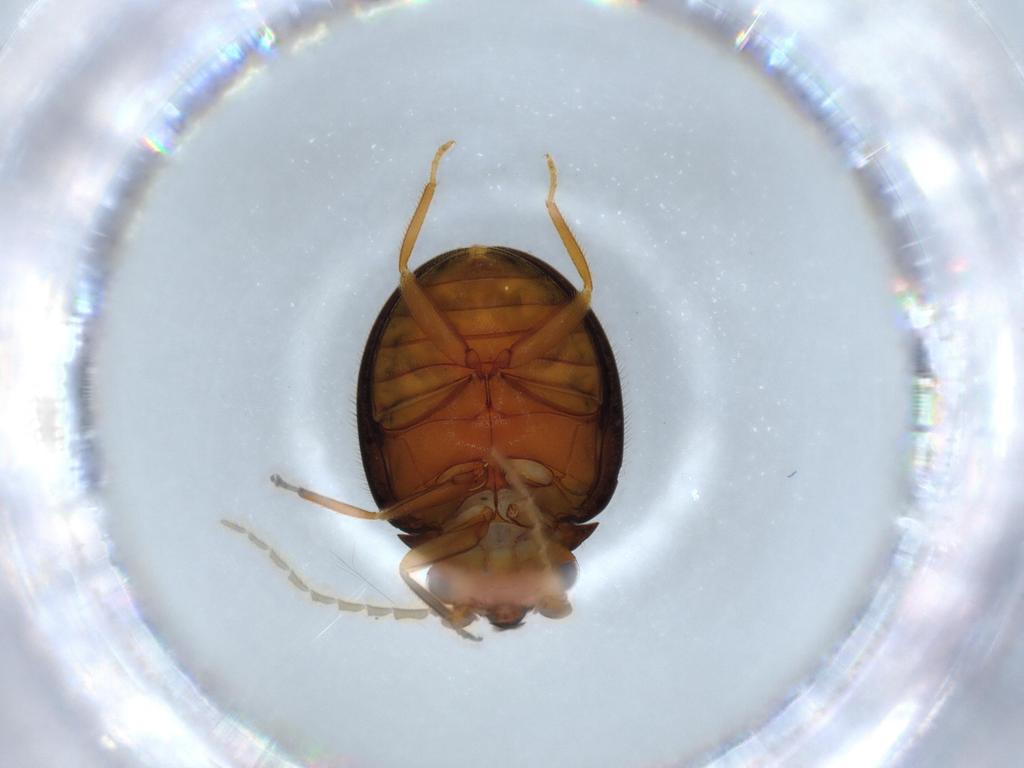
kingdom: Animalia
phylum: Arthropoda
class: Insecta
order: Coleoptera
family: Scirtidae
